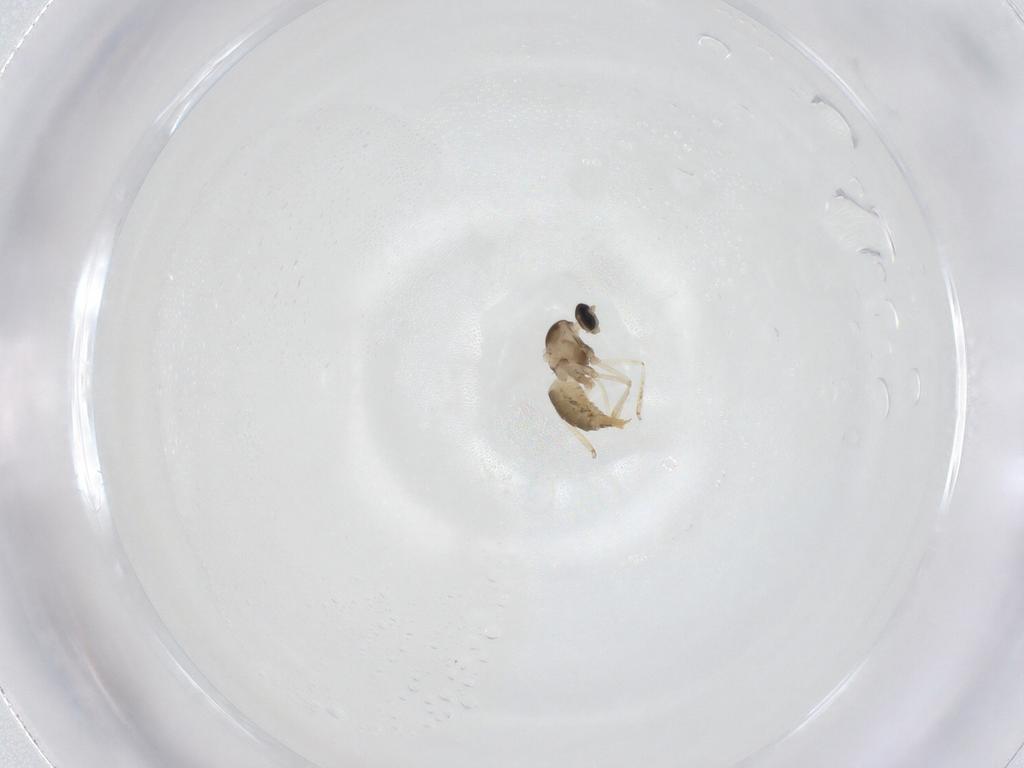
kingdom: Animalia
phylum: Arthropoda
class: Insecta
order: Diptera
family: Cecidomyiidae
